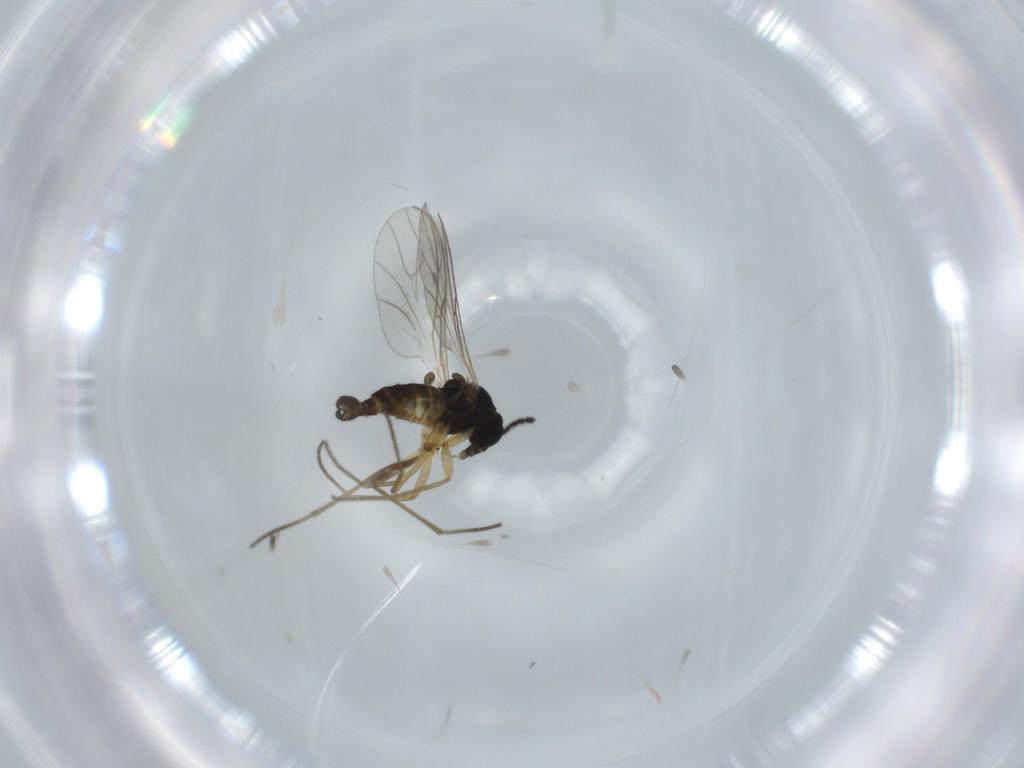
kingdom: Animalia
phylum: Arthropoda
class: Insecta
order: Diptera
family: Sciaridae
